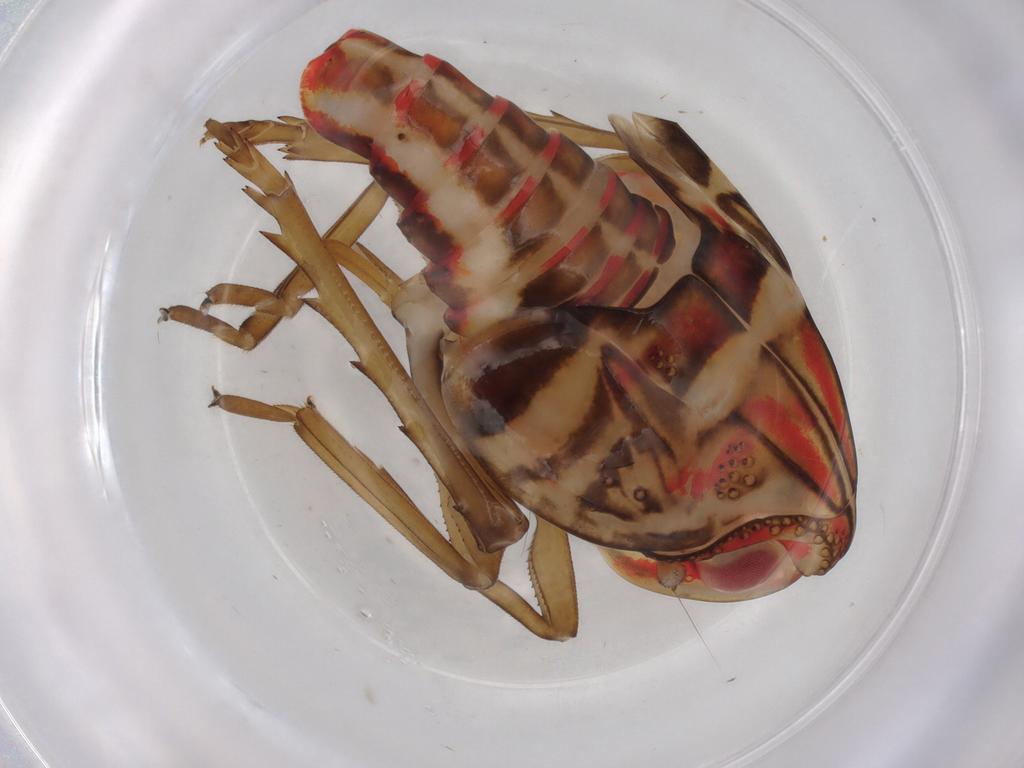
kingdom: Animalia
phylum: Arthropoda
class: Insecta
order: Hemiptera
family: Nogodinidae
